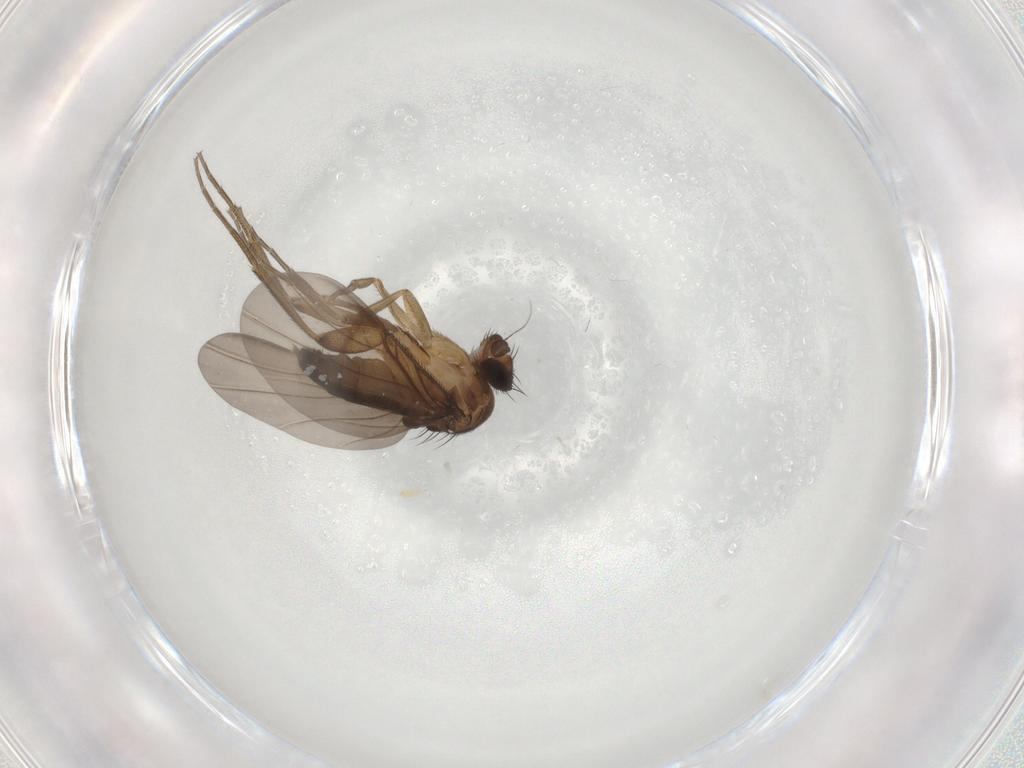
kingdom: Animalia
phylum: Arthropoda
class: Insecta
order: Diptera
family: Phoridae
